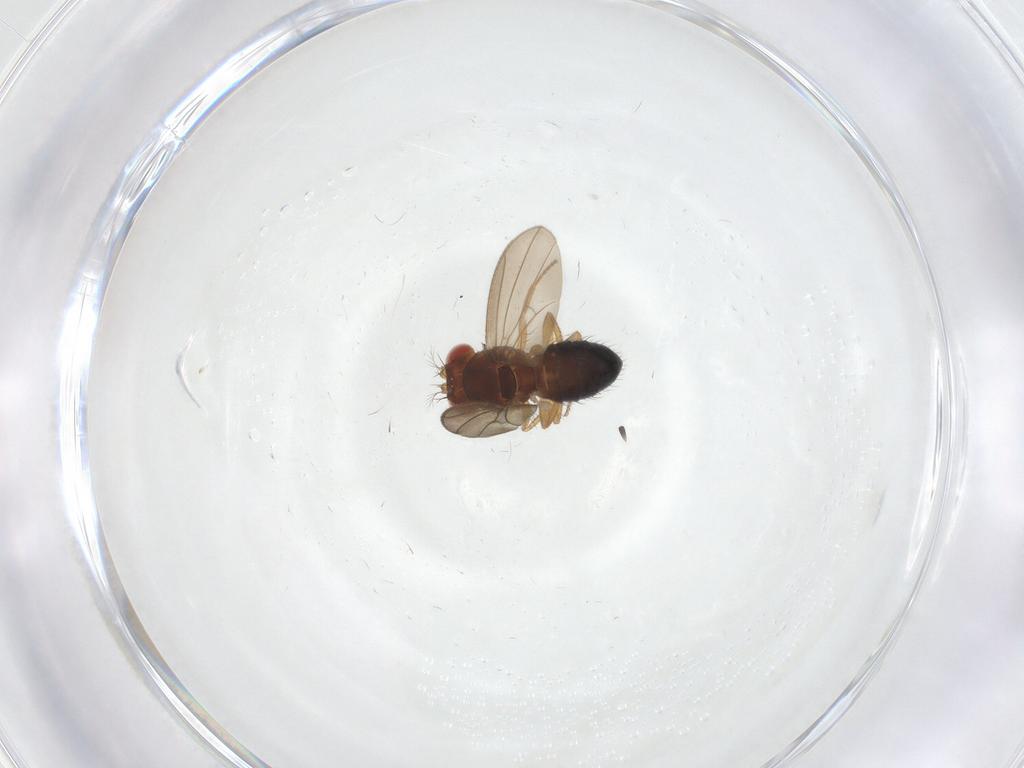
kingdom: Animalia
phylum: Arthropoda
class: Insecta
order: Diptera
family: Drosophilidae
